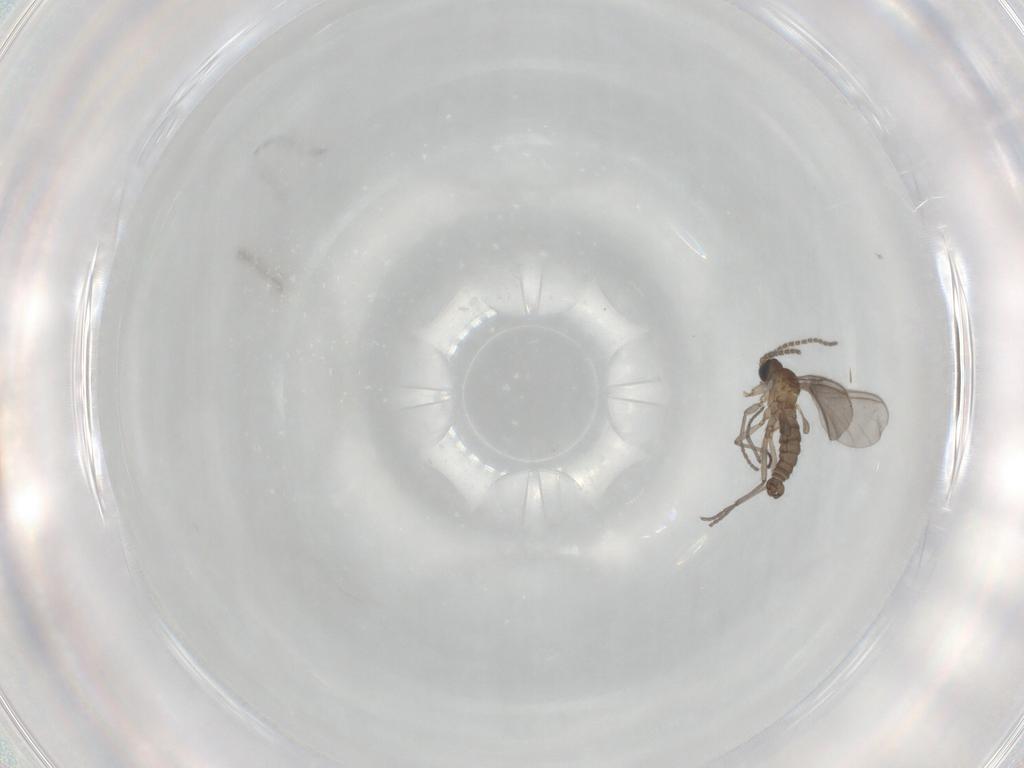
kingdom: Animalia
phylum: Arthropoda
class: Insecta
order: Diptera
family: Sciaridae
